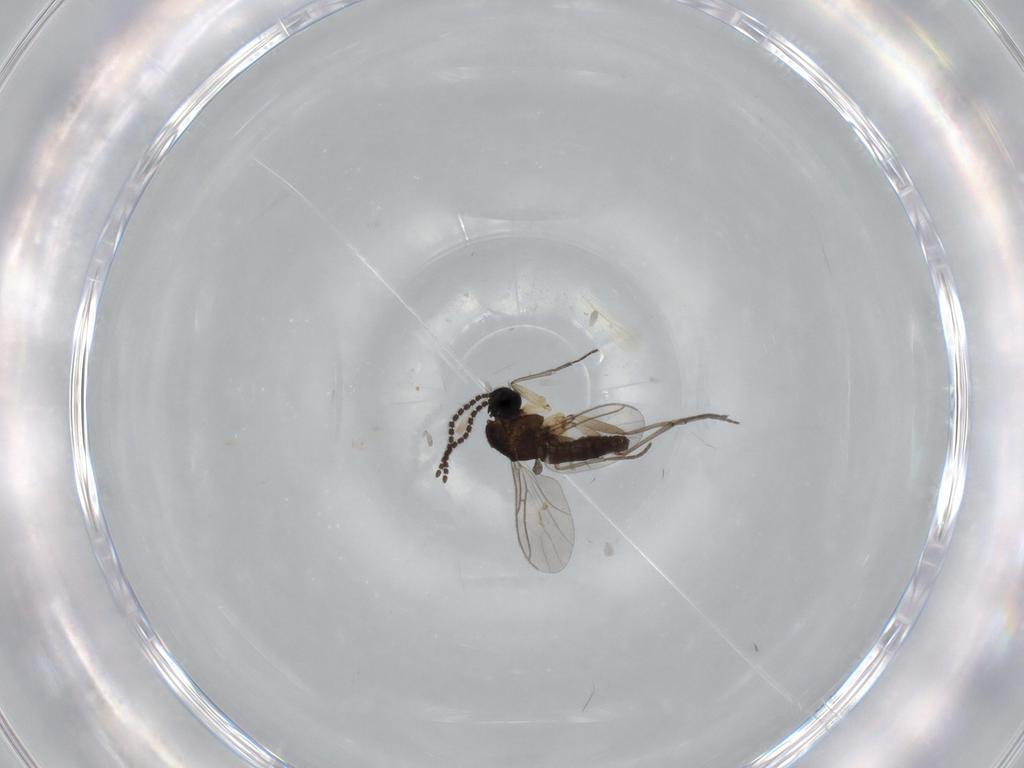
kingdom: Animalia
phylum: Arthropoda
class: Insecta
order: Diptera
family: Sciaridae
